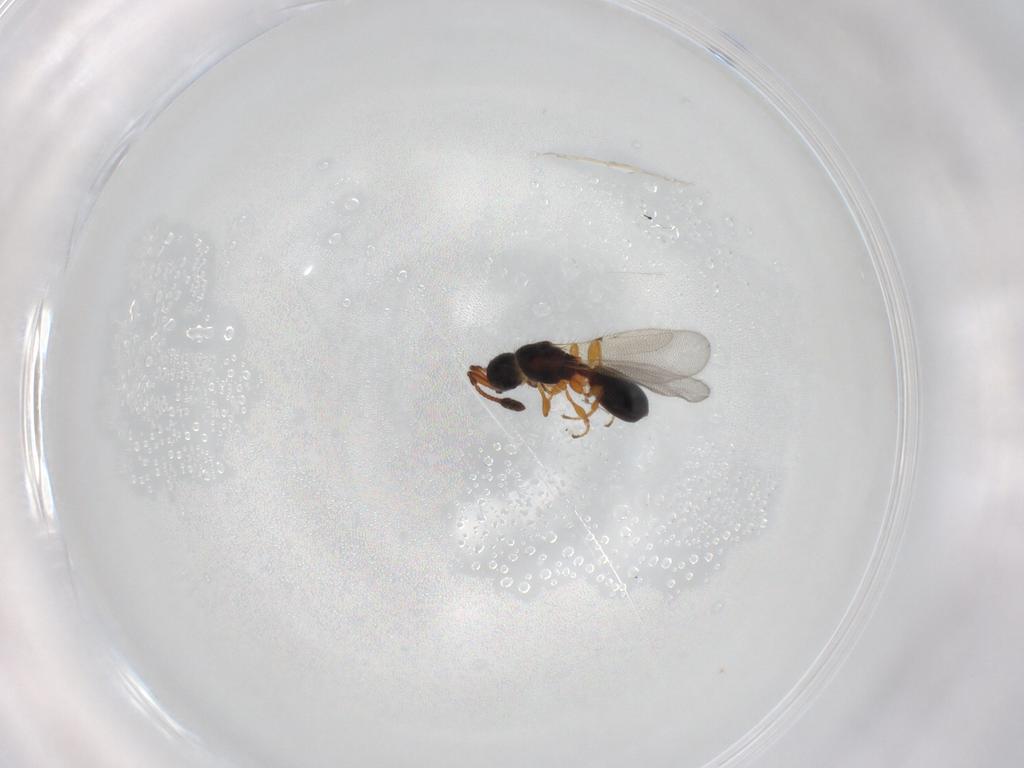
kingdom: Animalia
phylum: Arthropoda
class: Insecta
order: Hymenoptera
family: Diapriidae
